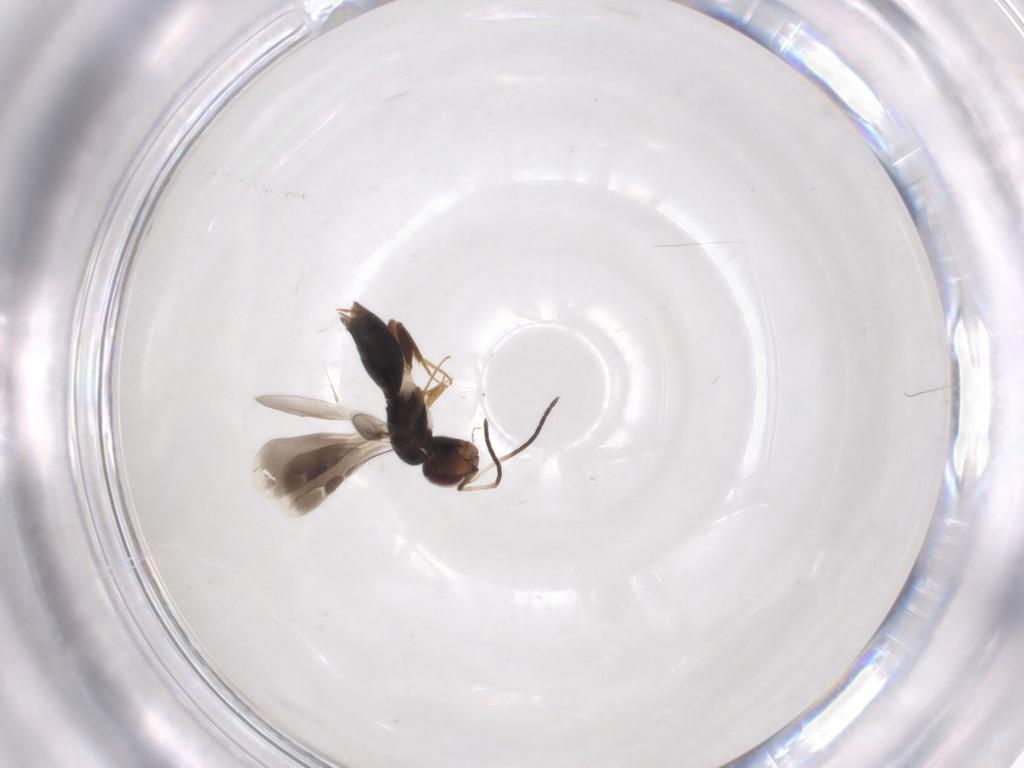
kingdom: Animalia
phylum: Arthropoda
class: Insecta
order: Hymenoptera
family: Megaspilidae
